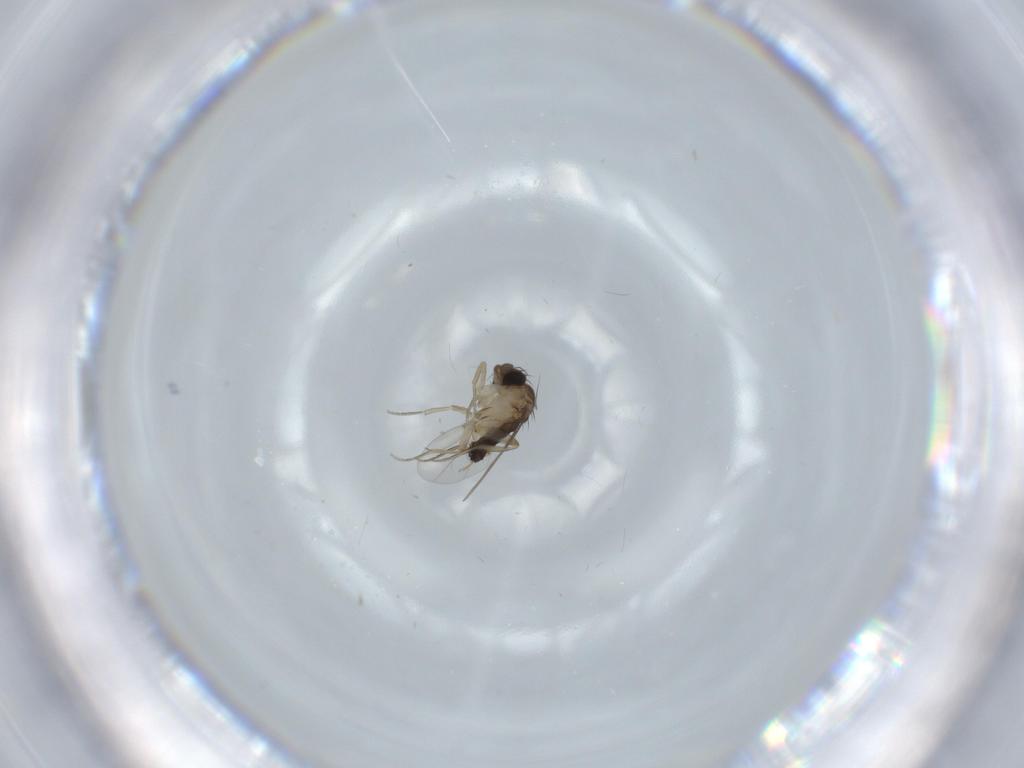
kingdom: Animalia
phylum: Arthropoda
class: Insecta
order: Diptera
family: Phoridae
